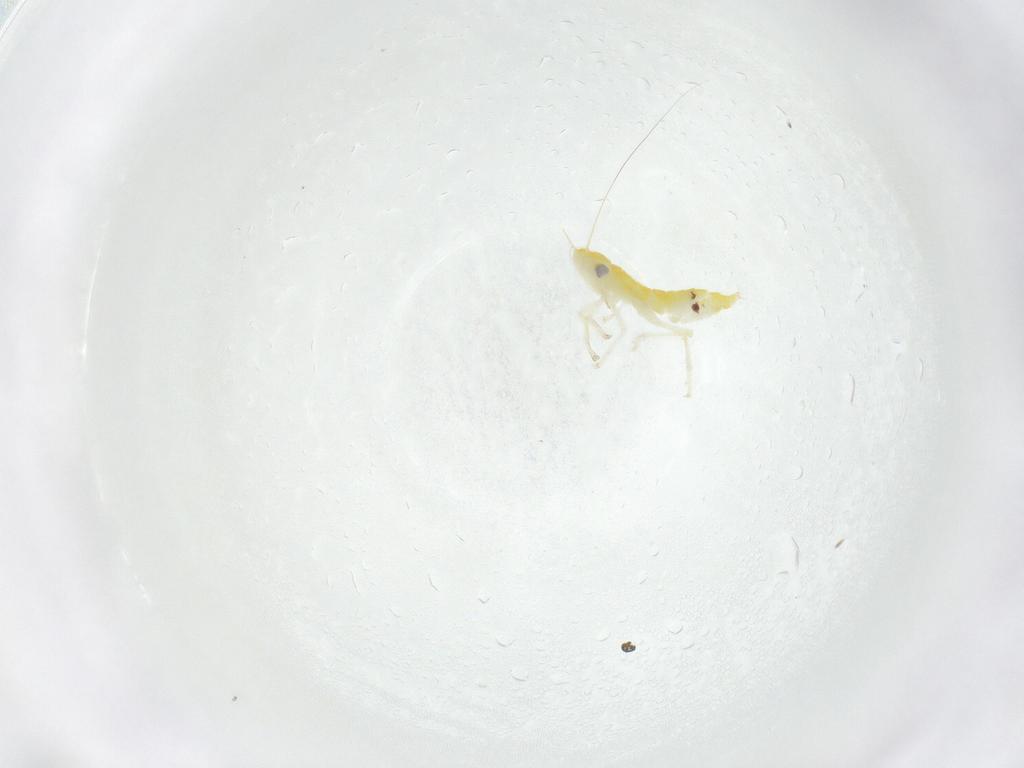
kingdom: Animalia
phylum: Arthropoda
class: Insecta
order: Hemiptera
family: Cicadellidae
